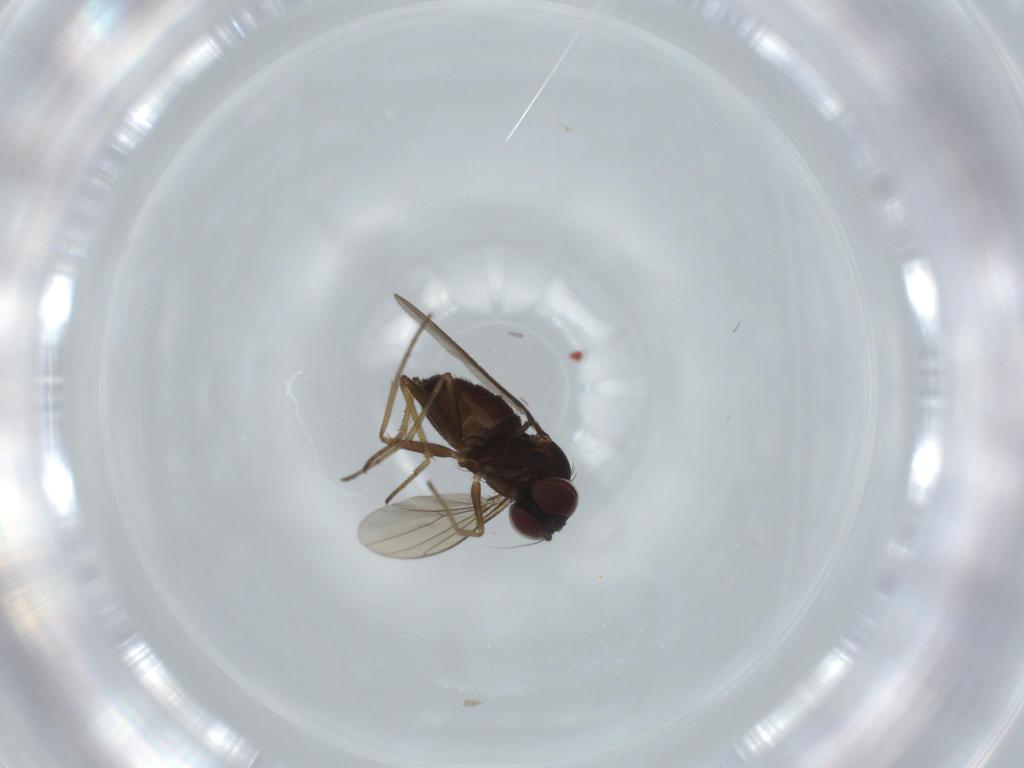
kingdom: Animalia
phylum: Arthropoda
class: Insecta
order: Diptera
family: Dolichopodidae
